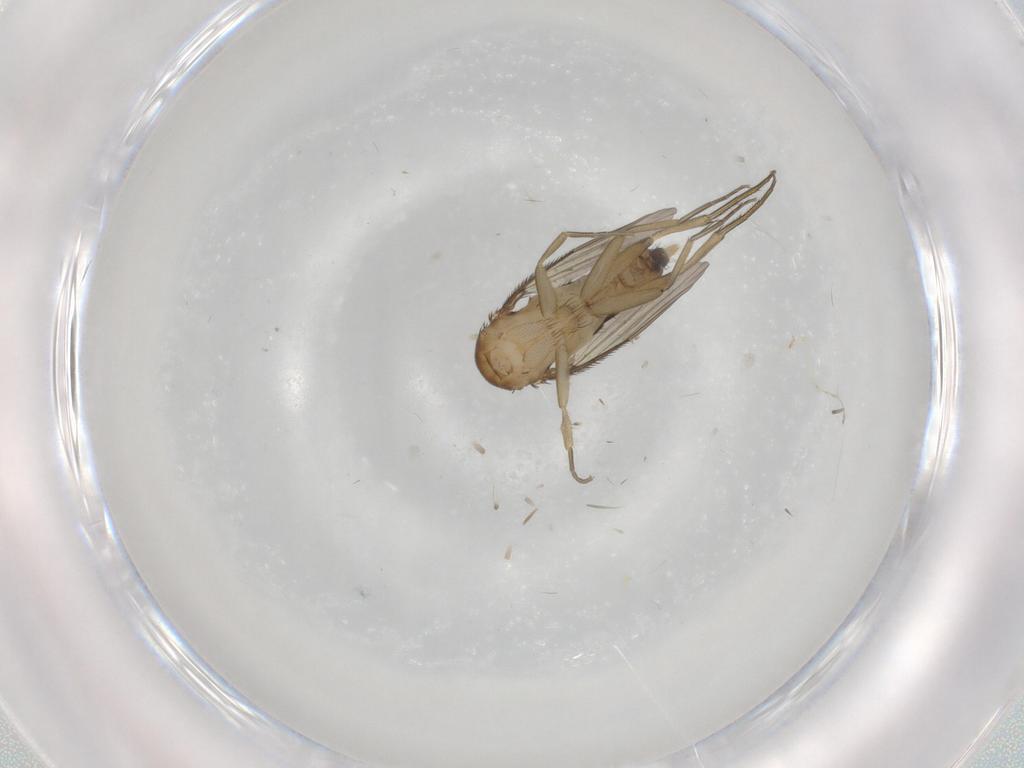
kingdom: Animalia
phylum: Arthropoda
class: Insecta
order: Diptera
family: Phoridae
